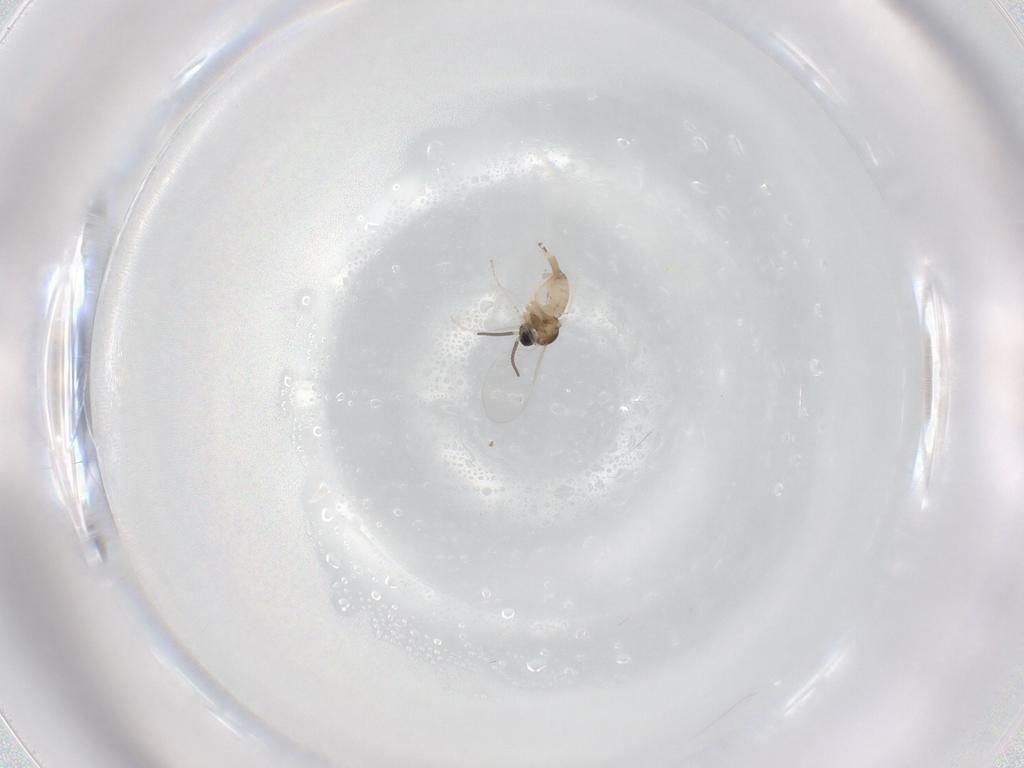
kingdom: Animalia
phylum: Arthropoda
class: Insecta
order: Diptera
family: Cecidomyiidae
